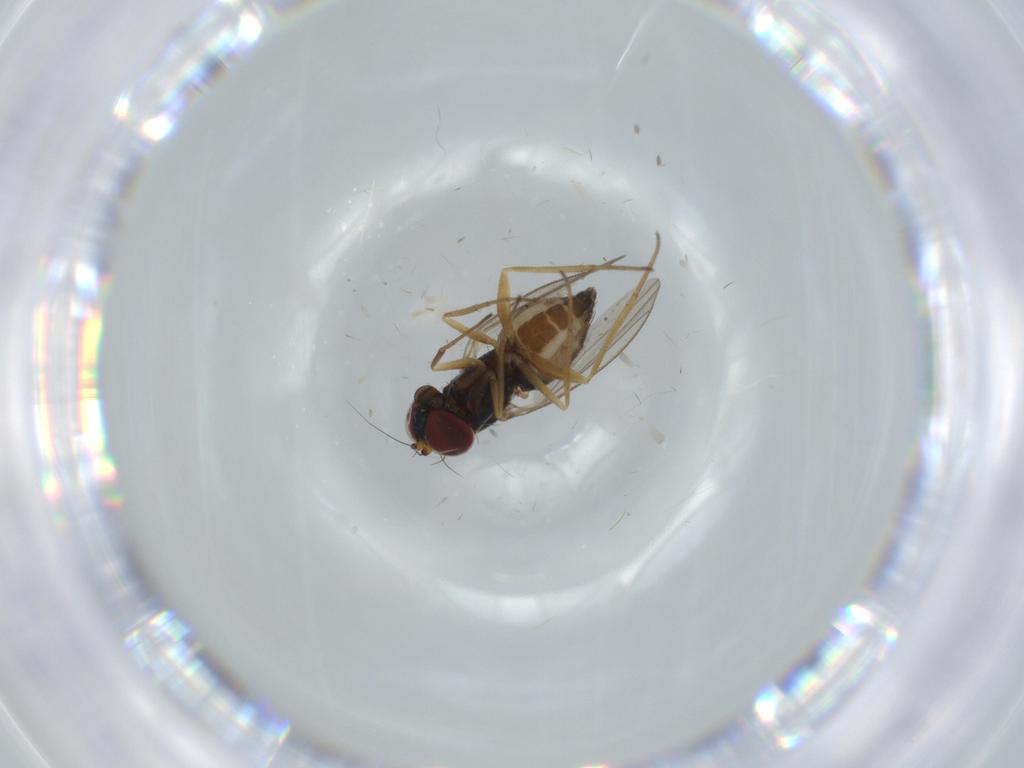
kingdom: Animalia
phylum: Arthropoda
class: Insecta
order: Diptera
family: Dolichopodidae
